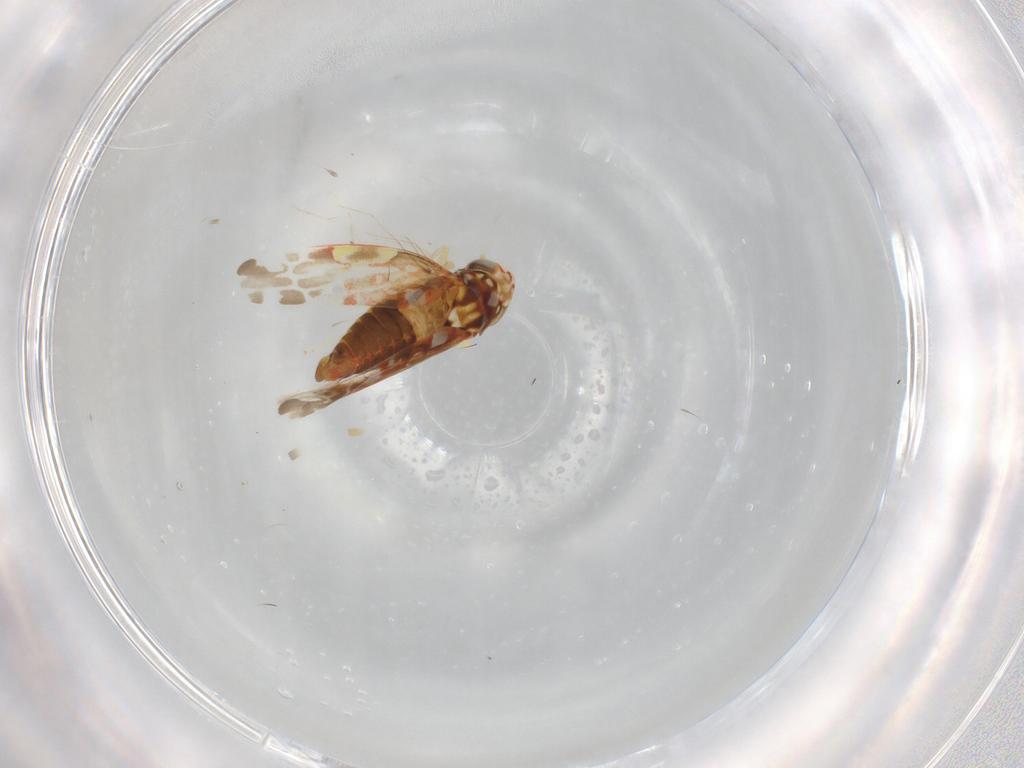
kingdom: Animalia
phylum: Arthropoda
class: Insecta
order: Hemiptera
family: Cicadellidae
